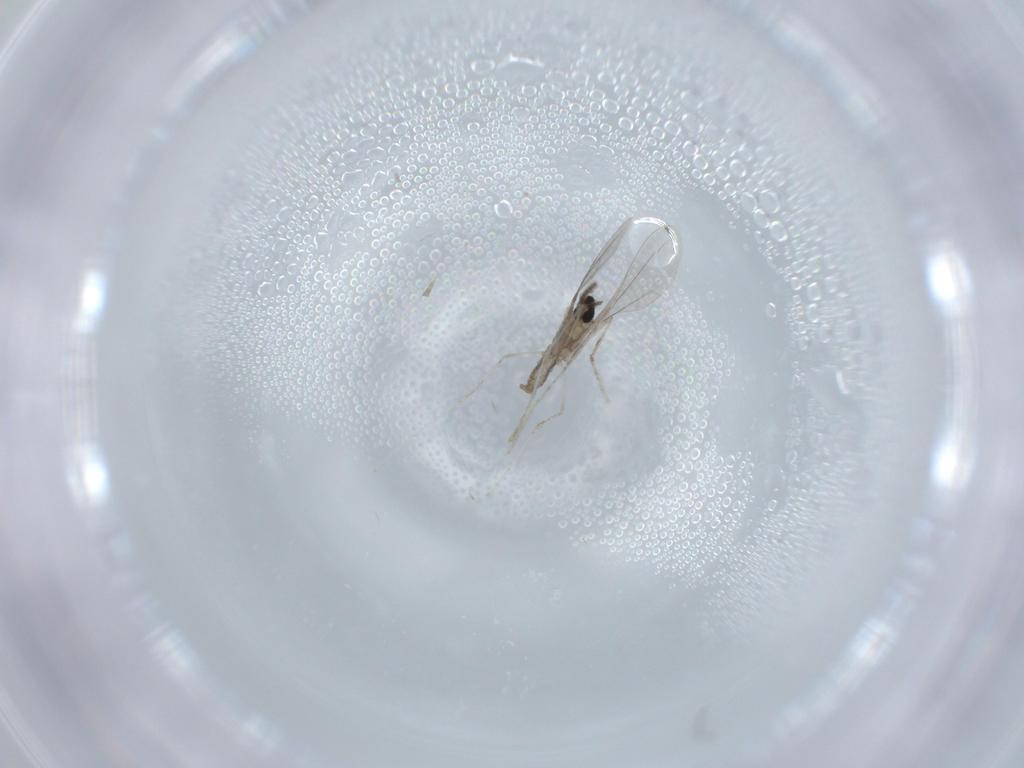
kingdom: Animalia
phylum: Arthropoda
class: Insecta
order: Diptera
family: Cecidomyiidae
